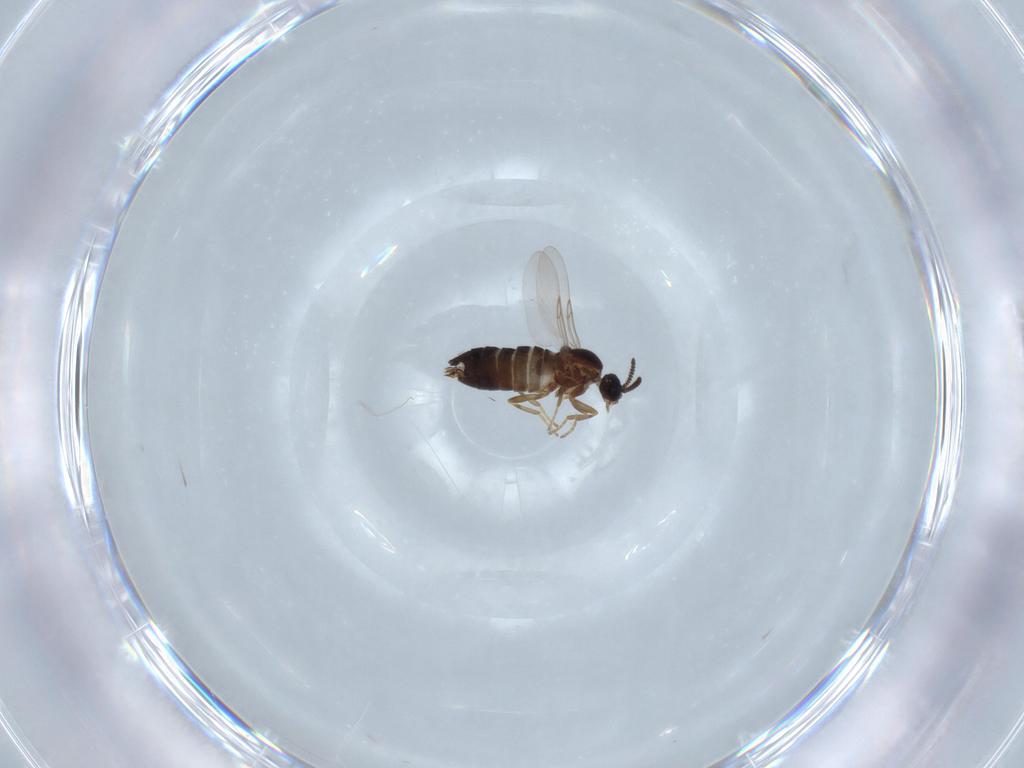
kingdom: Animalia
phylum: Arthropoda
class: Insecta
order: Diptera
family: Scatopsidae
